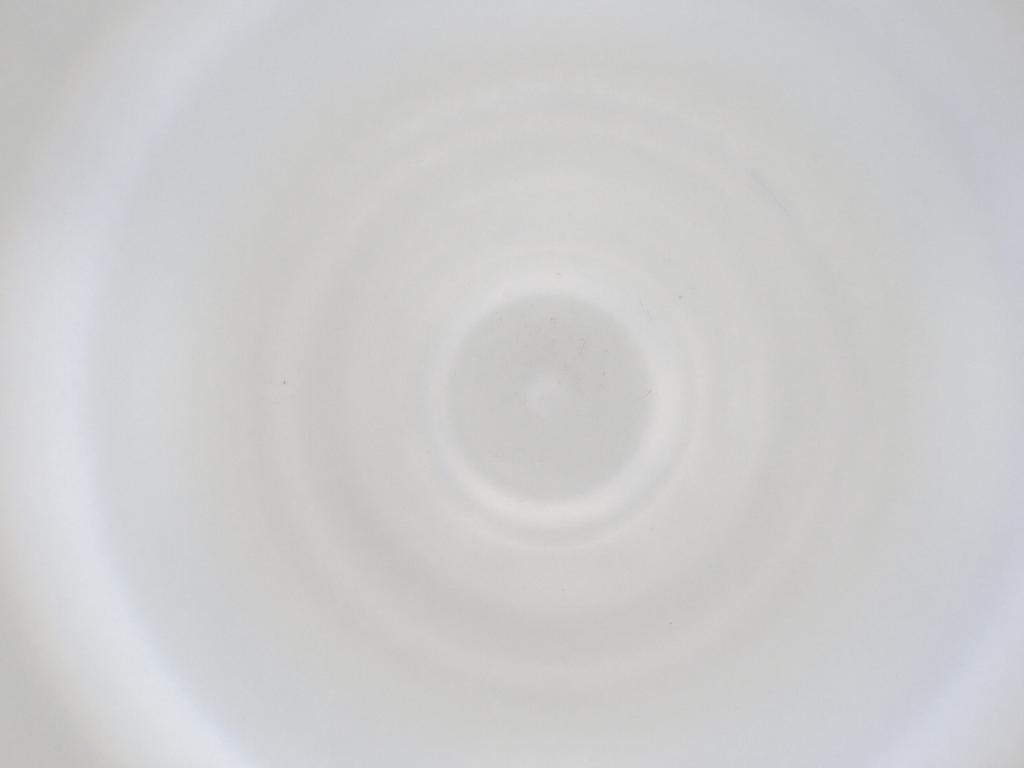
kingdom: Animalia
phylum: Arthropoda
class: Insecta
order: Diptera
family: Cecidomyiidae
